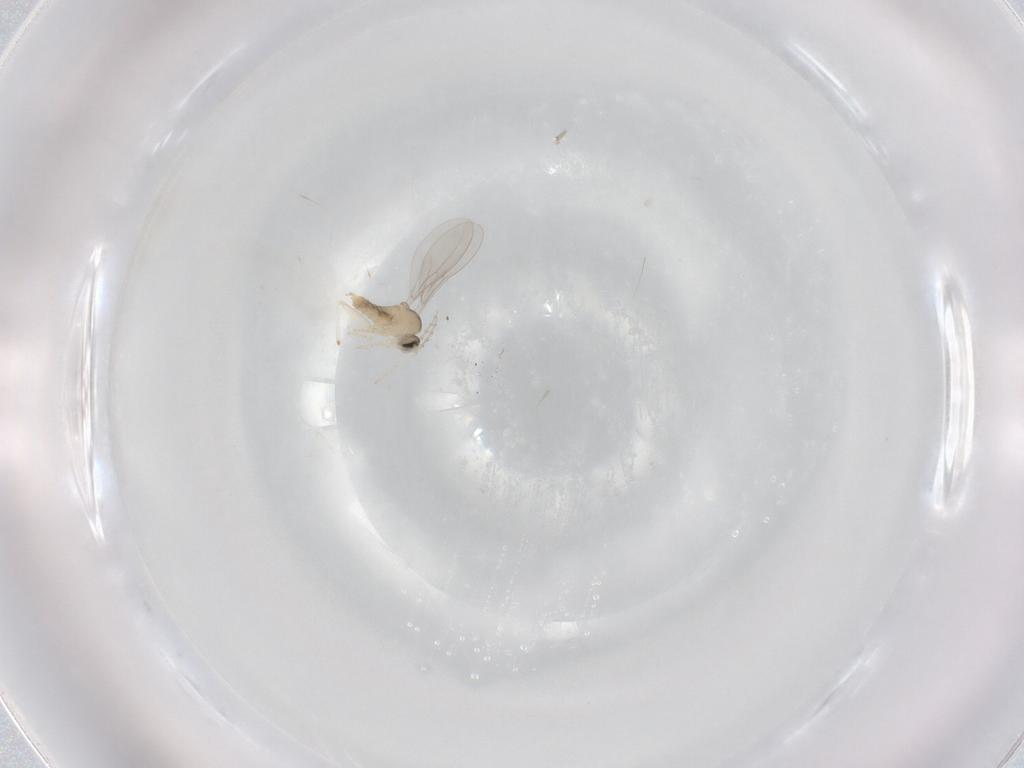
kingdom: Animalia
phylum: Arthropoda
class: Insecta
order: Diptera
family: Cecidomyiidae
